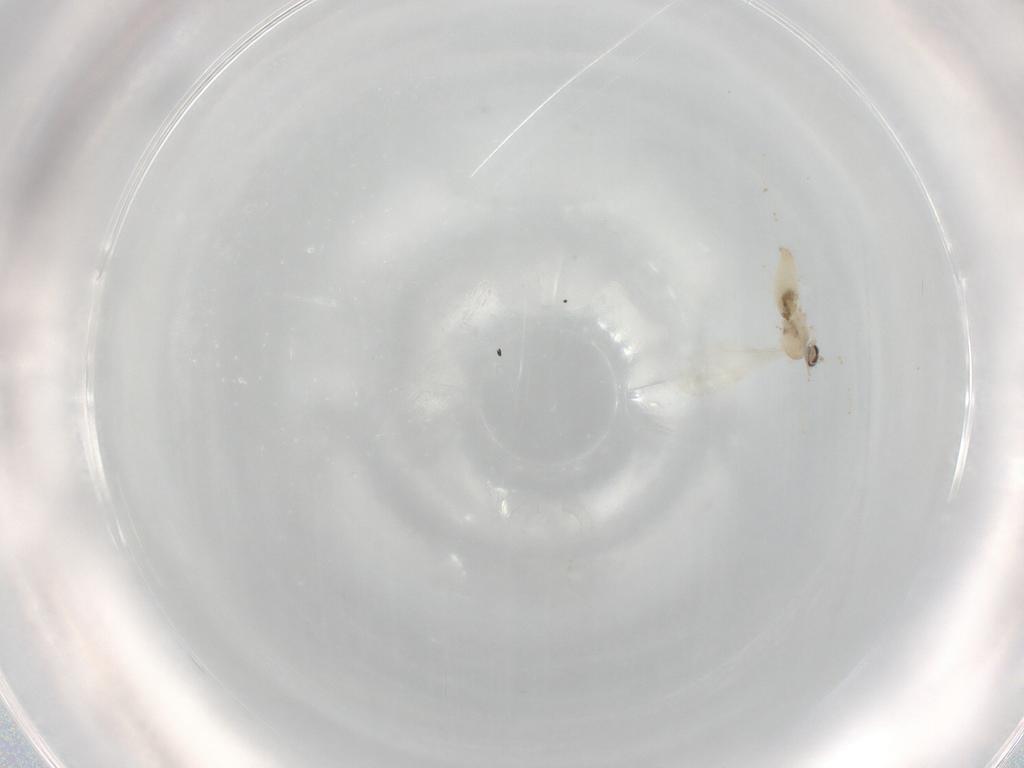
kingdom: Animalia
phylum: Arthropoda
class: Insecta
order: Diptera
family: Chironomidae
